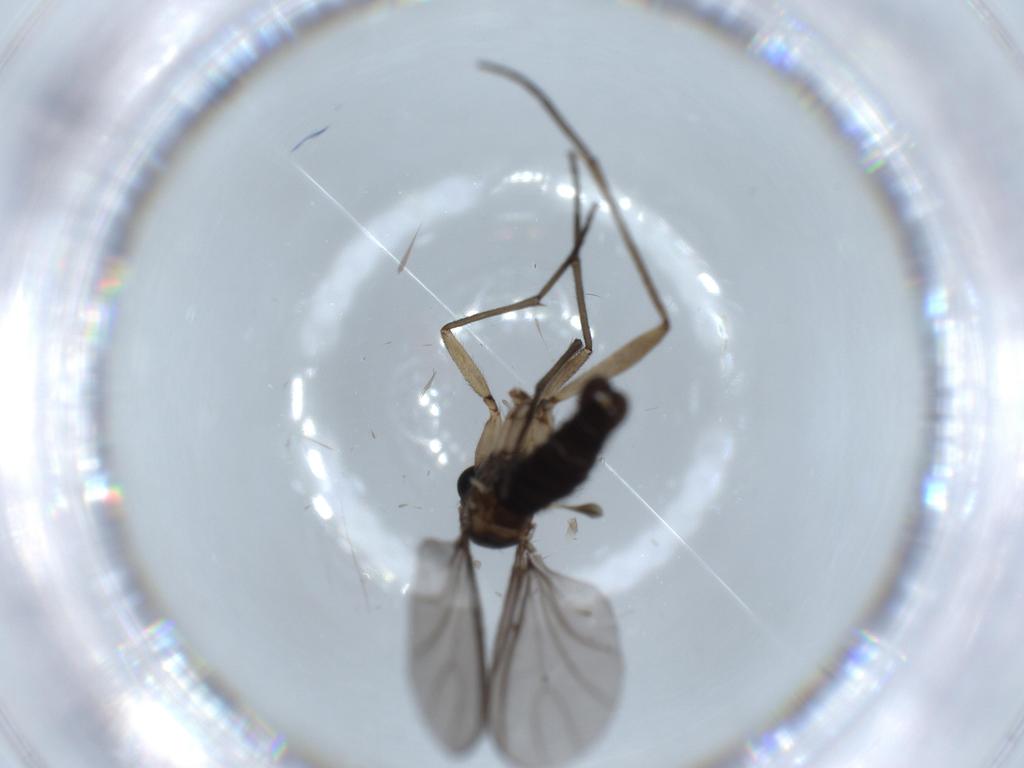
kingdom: Animalia
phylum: Arthropoda
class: Insecta
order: Diptera
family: Sciaridae
